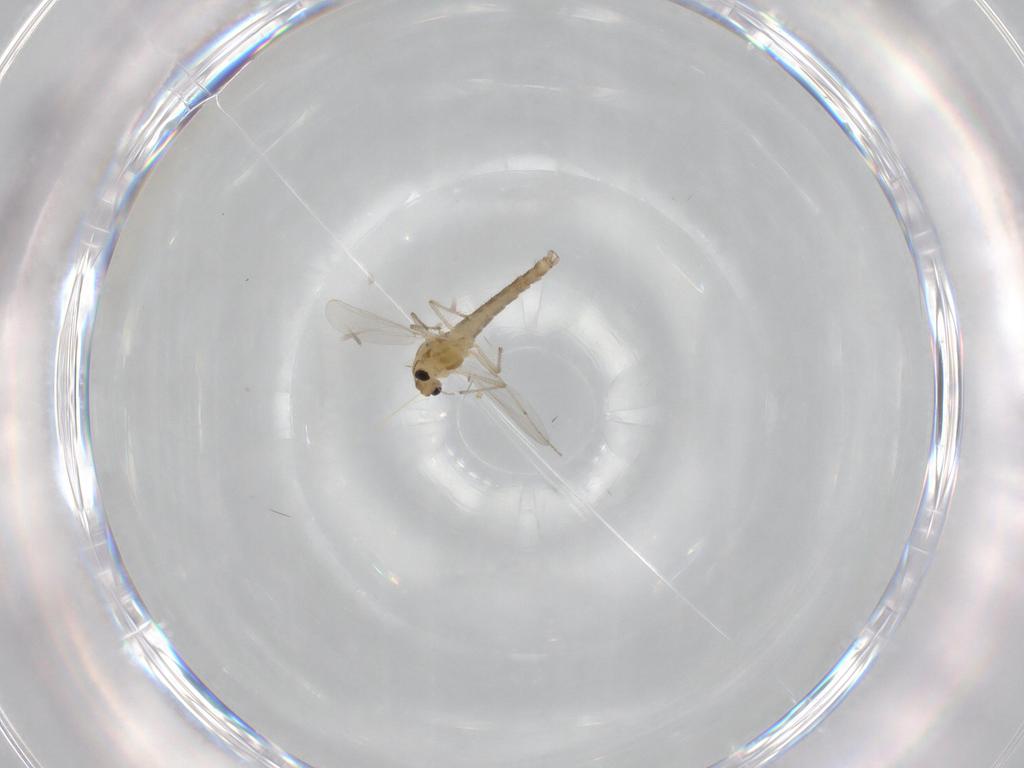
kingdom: Animalia
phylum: Arthropoda
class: Insecta
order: Diptera
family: Chironomidae
